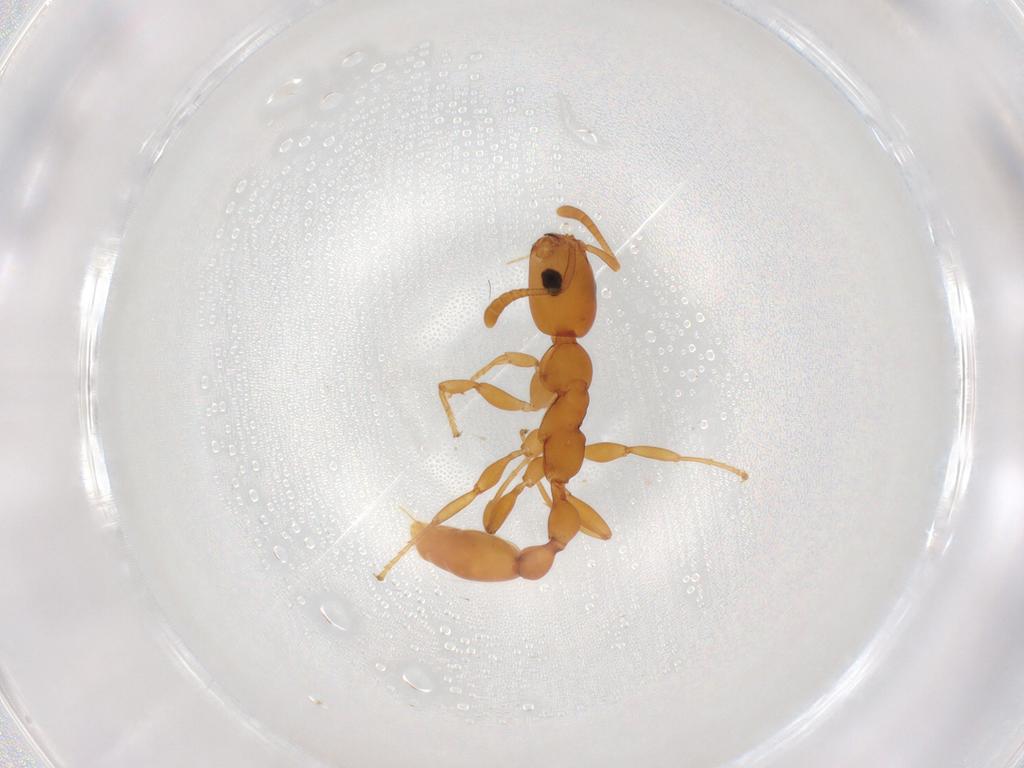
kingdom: Animalia
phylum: Arthropoda
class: Insecta
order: Hymenoptera
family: Formicidae
